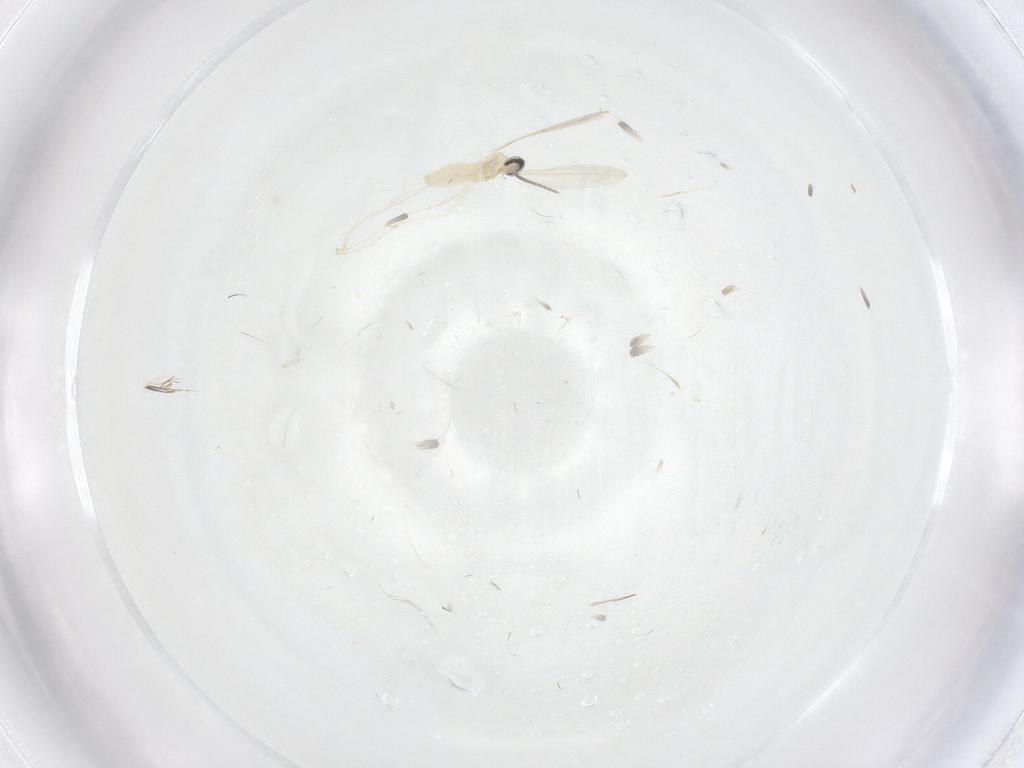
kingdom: Animalia
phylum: Arthropoda
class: Insecta
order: Diptera
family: Cecidomyiidae
